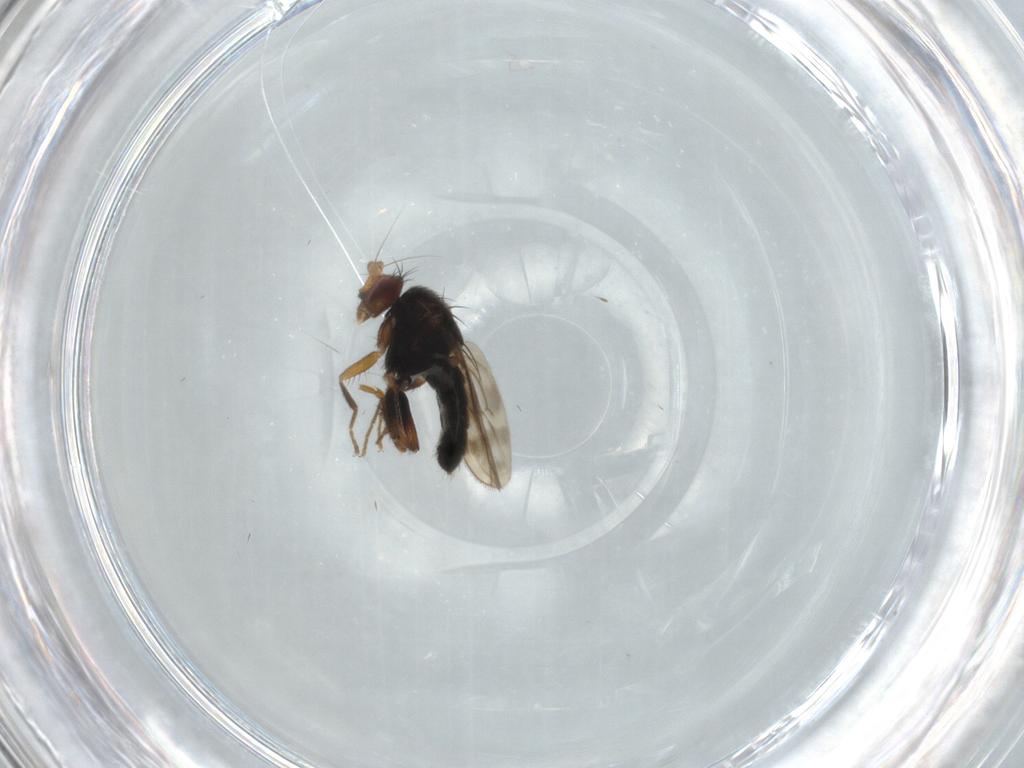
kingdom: Animalia
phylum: Arthropoda
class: Insecta
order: Diptera
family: Sphaeroceridae
